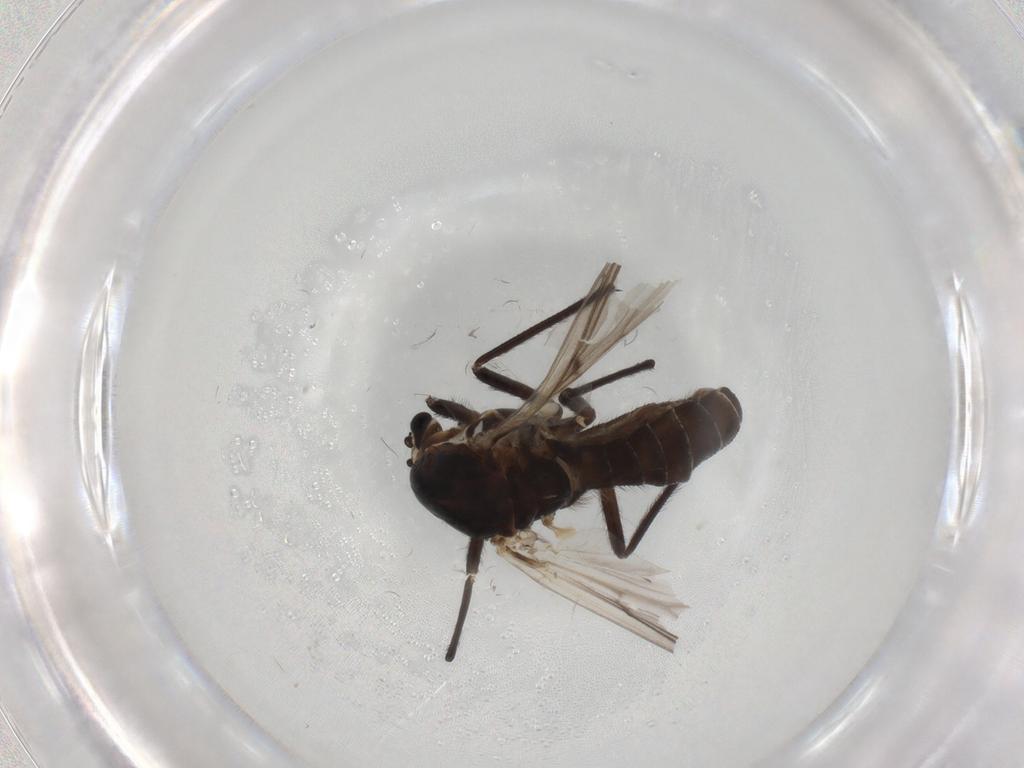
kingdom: Animalia
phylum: Arthropoda
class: Insecta
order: Diptera
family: Chironomidae
